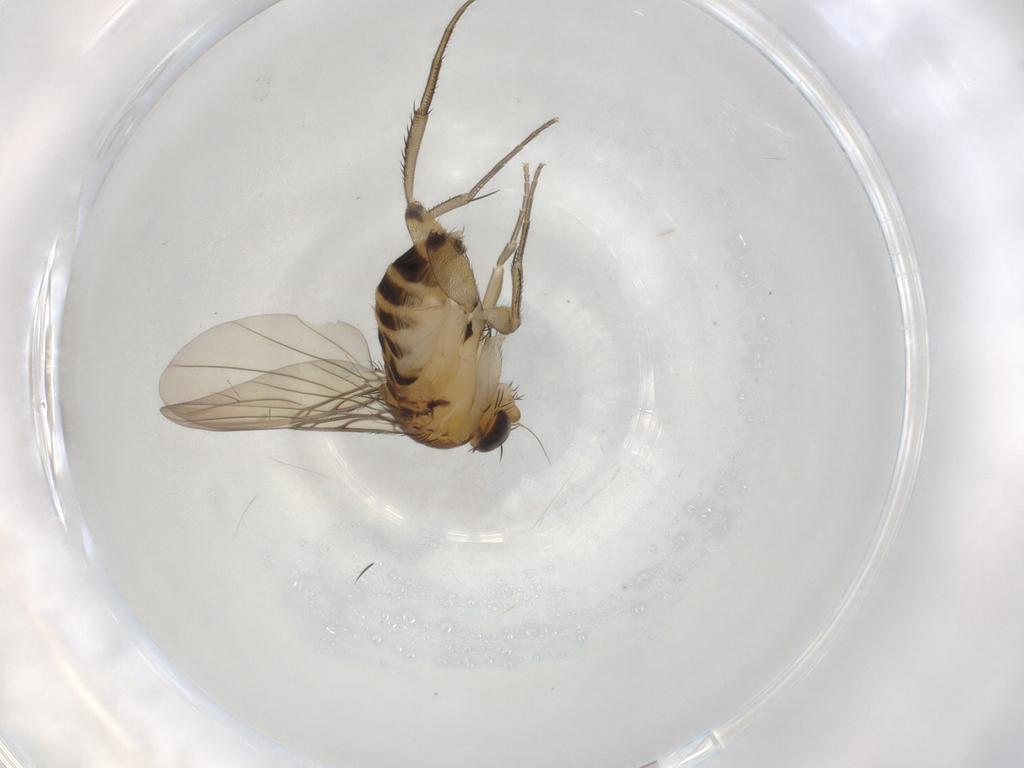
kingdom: Animalia
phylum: Arthropoda
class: Insecta
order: Diptera
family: Phoridae
